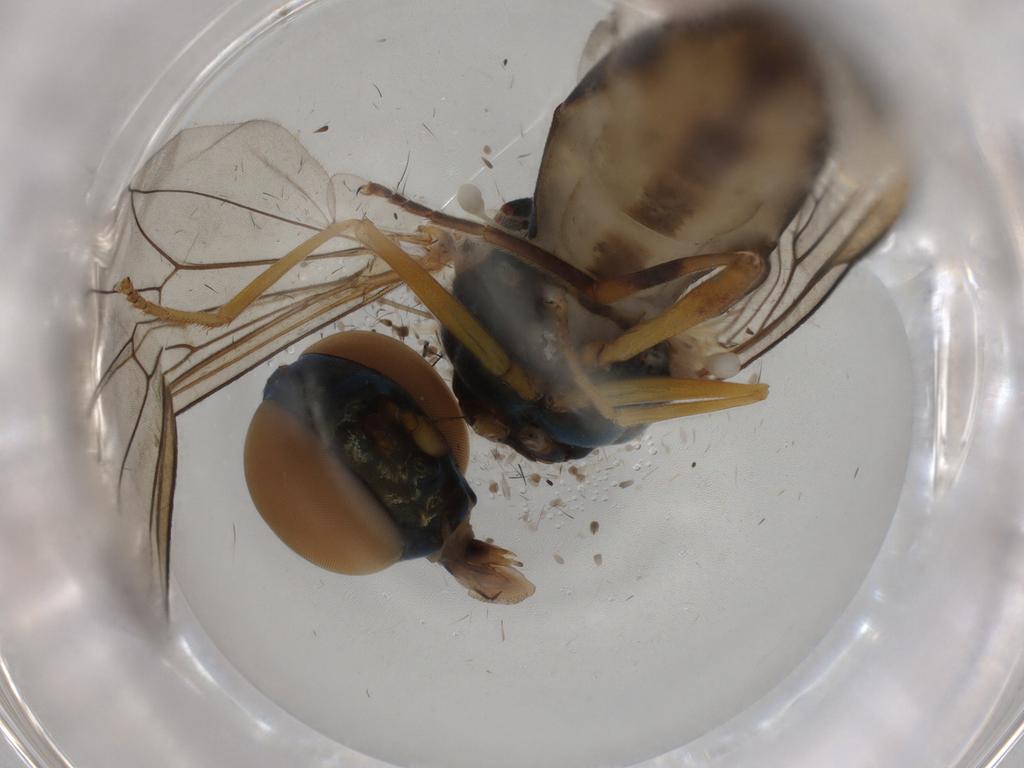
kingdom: Animalia
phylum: Arthropoda
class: Insecta
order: Diptera
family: Syrphidae
